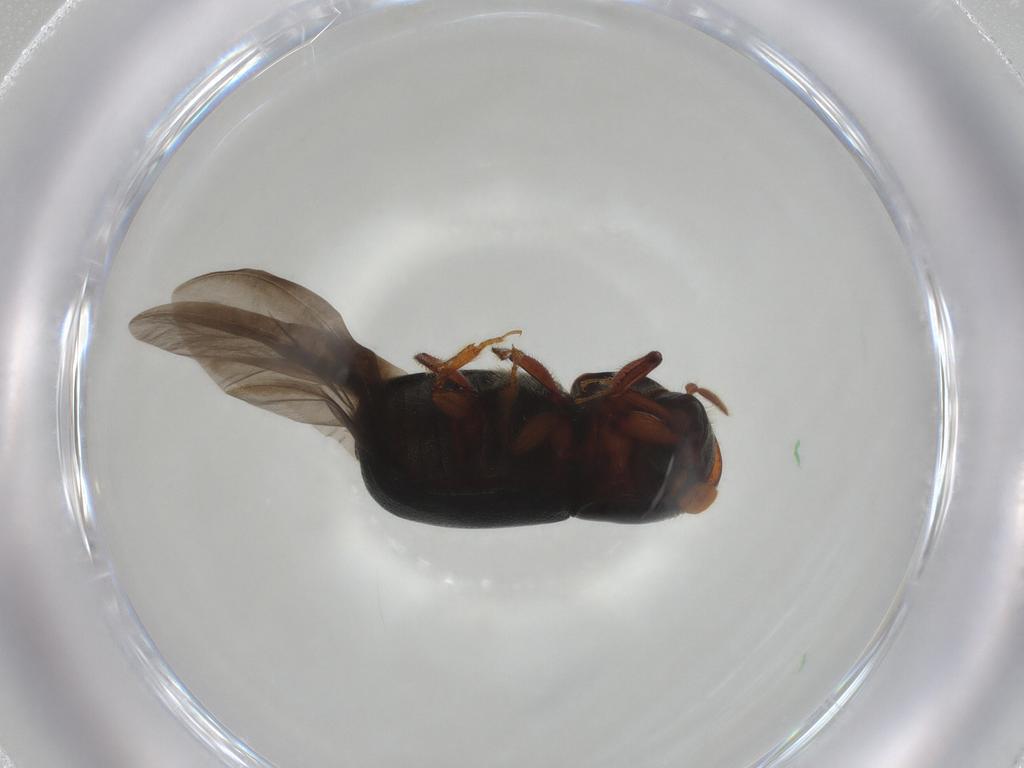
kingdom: Animalia
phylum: Arthropoda
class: Insecta
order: Coleoptera
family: Curculionidae
